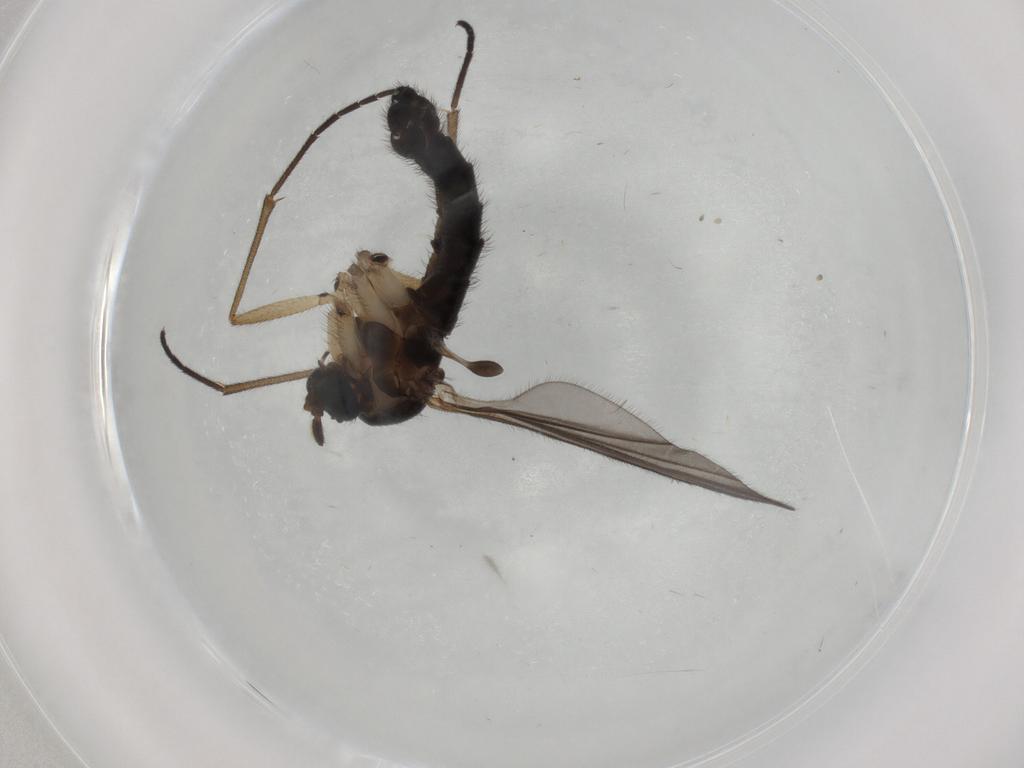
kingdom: Animalia
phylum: Arthropoda
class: Insecta
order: Diptera
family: Sciaridae
